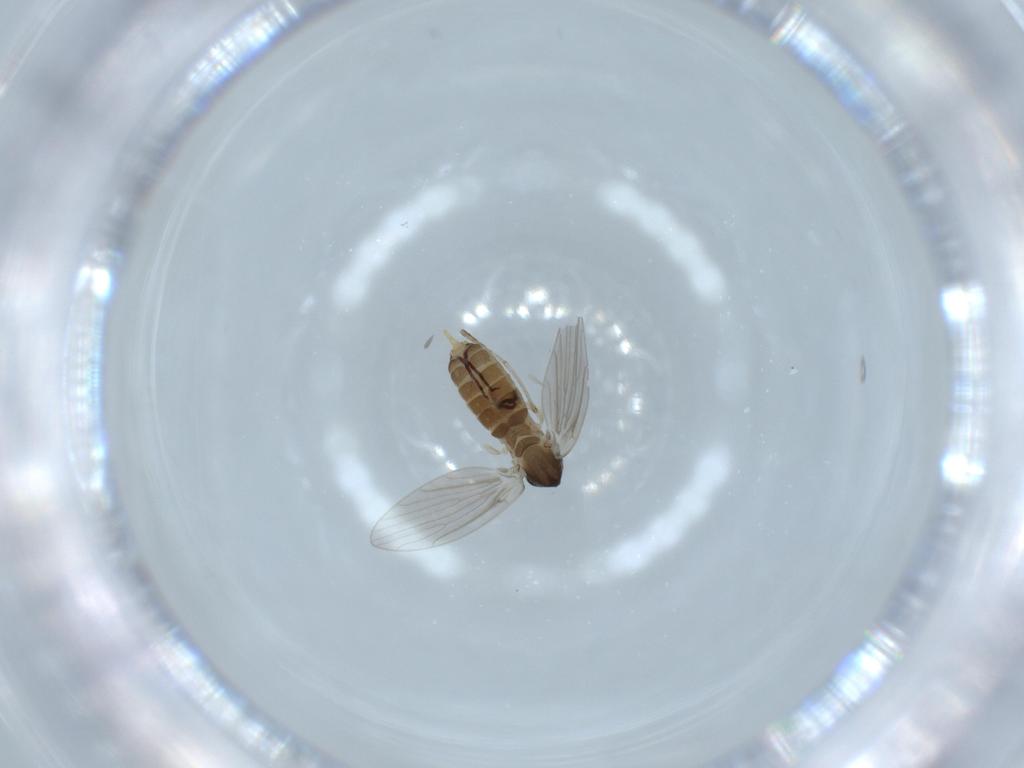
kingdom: Animalia
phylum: Arthropoda
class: Insecta
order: Diptera
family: Psychodidae
